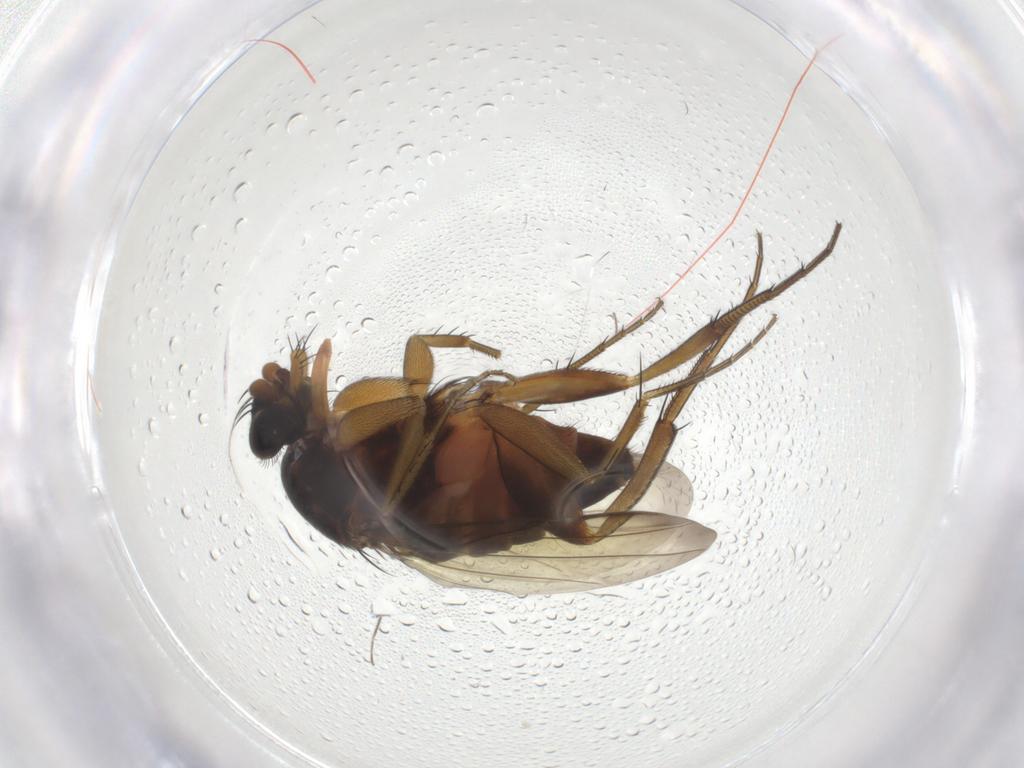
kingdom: Animalia
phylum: Arthropoda
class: Insecta
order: Diptera
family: Phoridae
